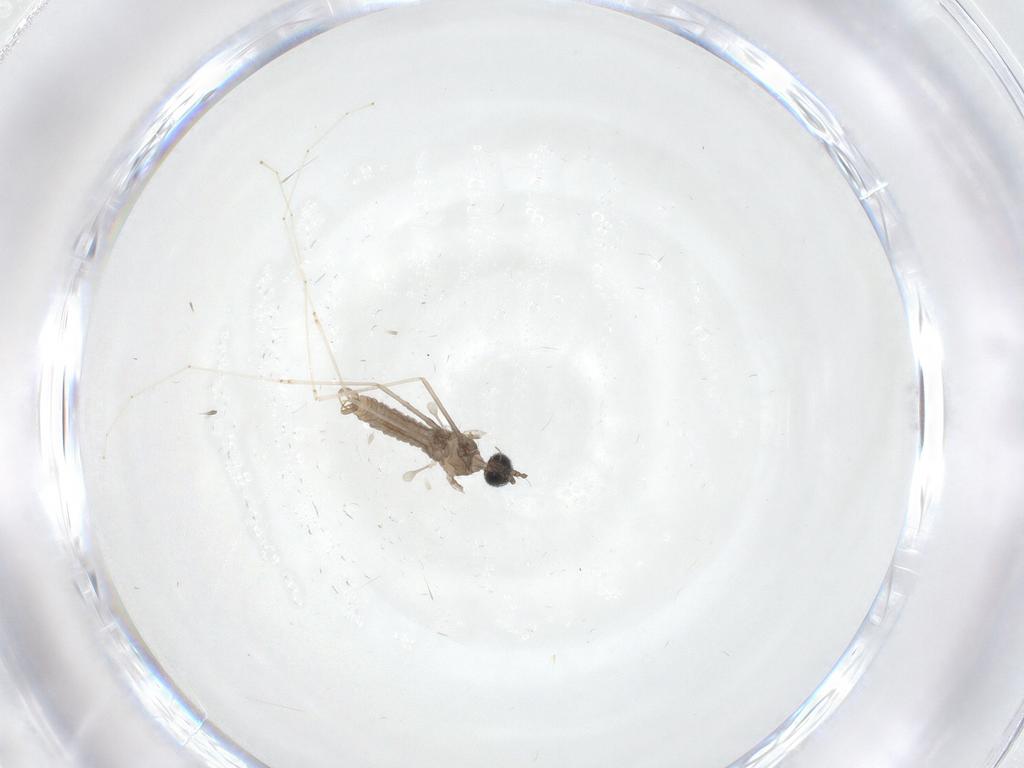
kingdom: Animalia
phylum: Arthropoda
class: Insecta
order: Diptera
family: Cecidomyiidae
